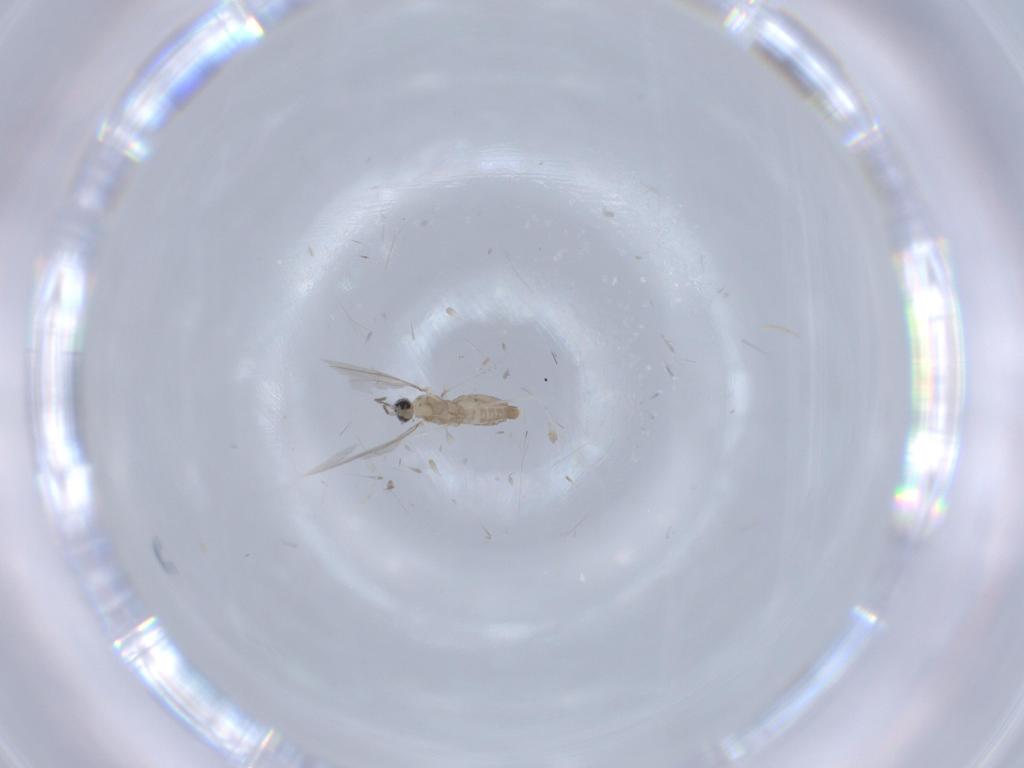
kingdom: Animalia
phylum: Arthropoda
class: Insecta
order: Diptera
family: Cecidomyiidae
